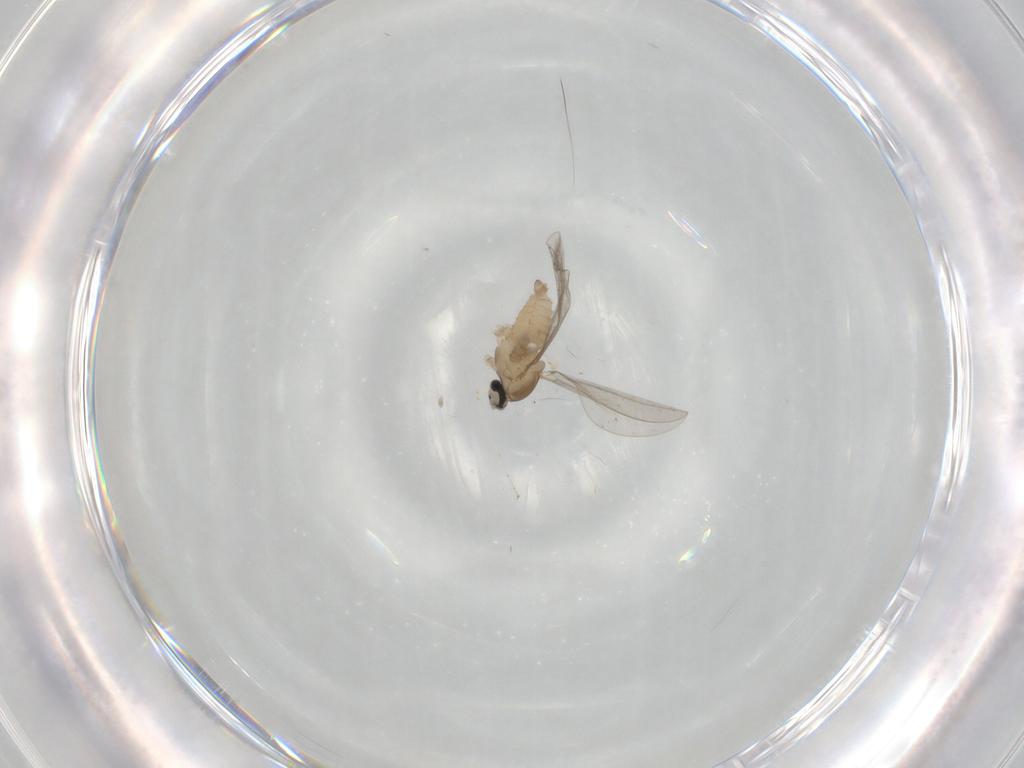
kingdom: Animalia
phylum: Arthropoda
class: Insecta
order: Diptera
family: Cecidomyiidae
